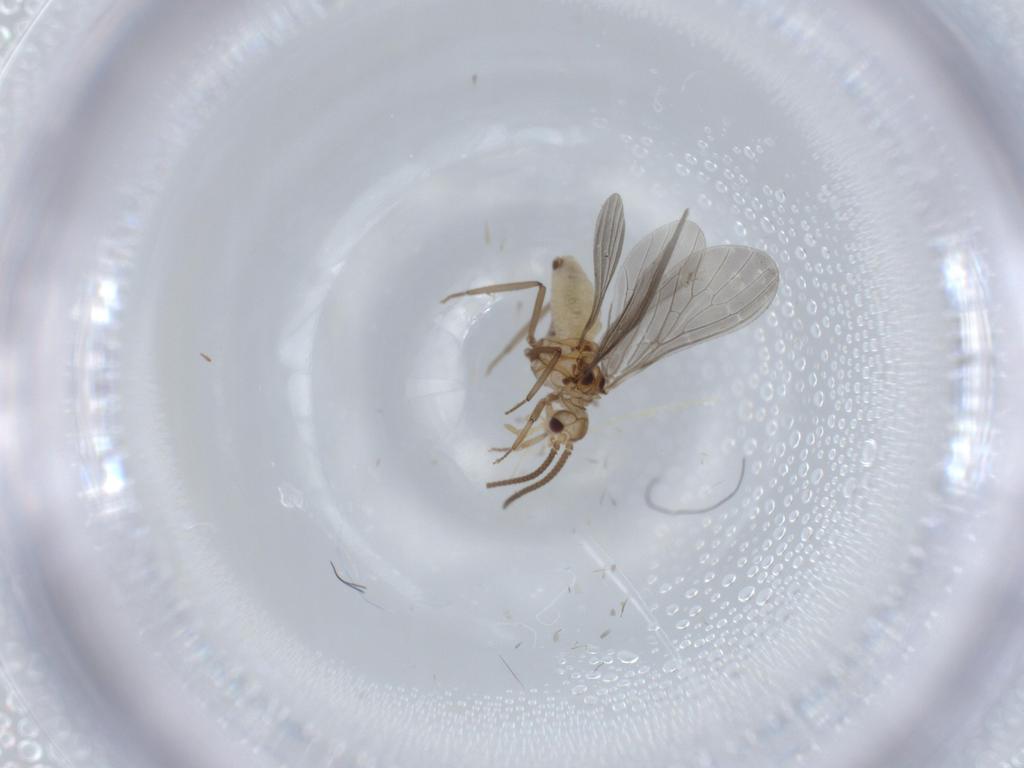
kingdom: Animalia
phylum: Arthropoda
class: Insecta
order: Neuroptera
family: Coniopterygidae
